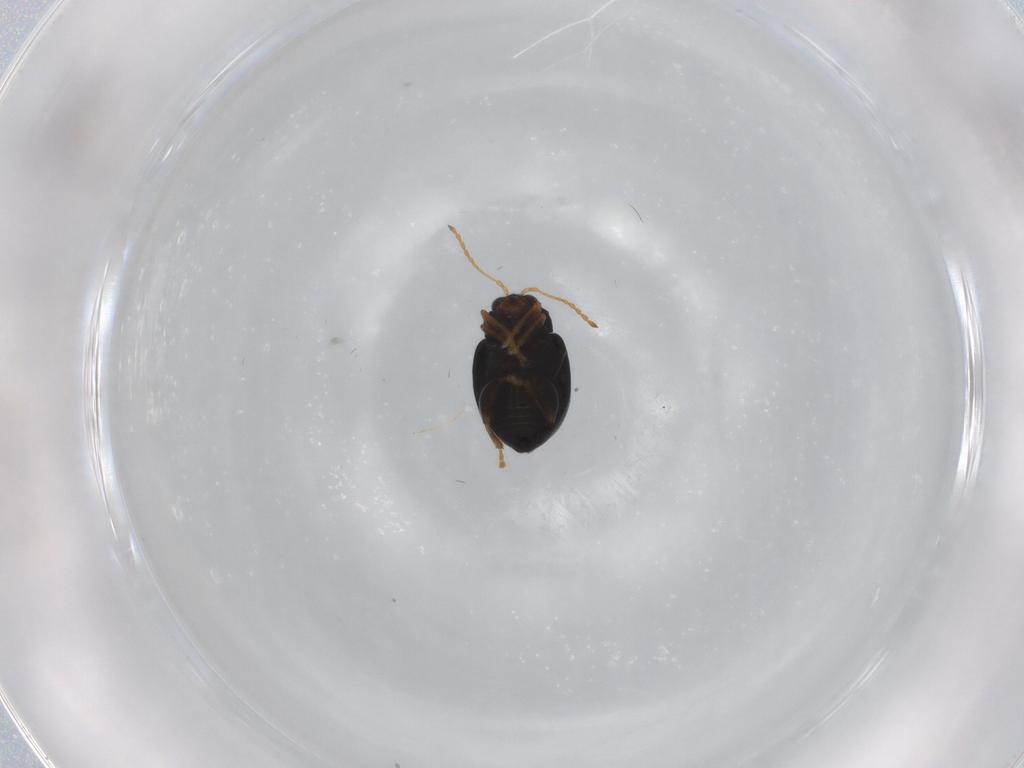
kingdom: Animalia
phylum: Arthropoda
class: Insecta
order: Coleoptera
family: Chrysomelidae
